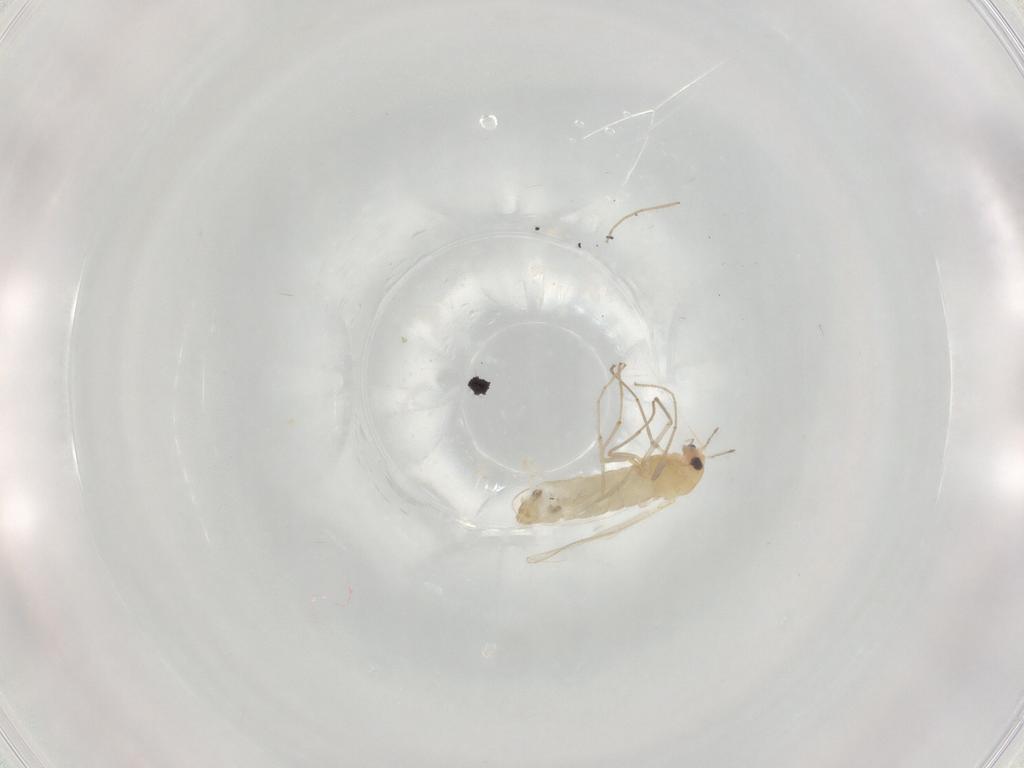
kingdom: Animalia
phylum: Arthropoda
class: Insecta
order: Diptera
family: Chironomidae
